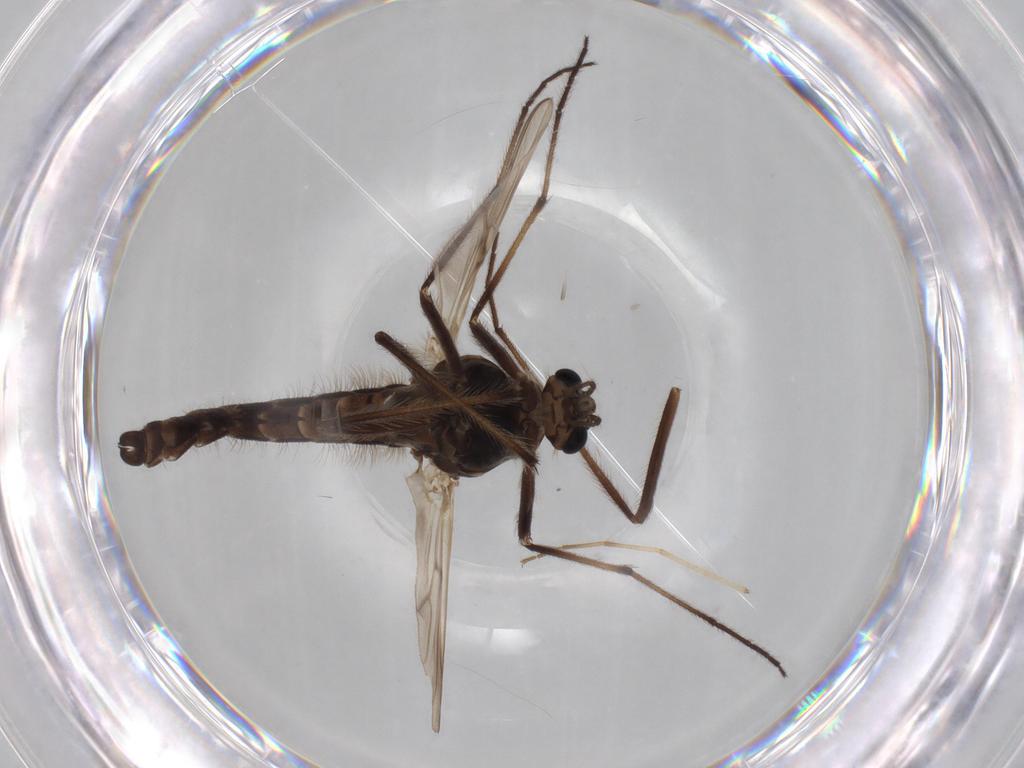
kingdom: Animalia
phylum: Arthropoda
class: Insecta
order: Diptera
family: Chironomidae
